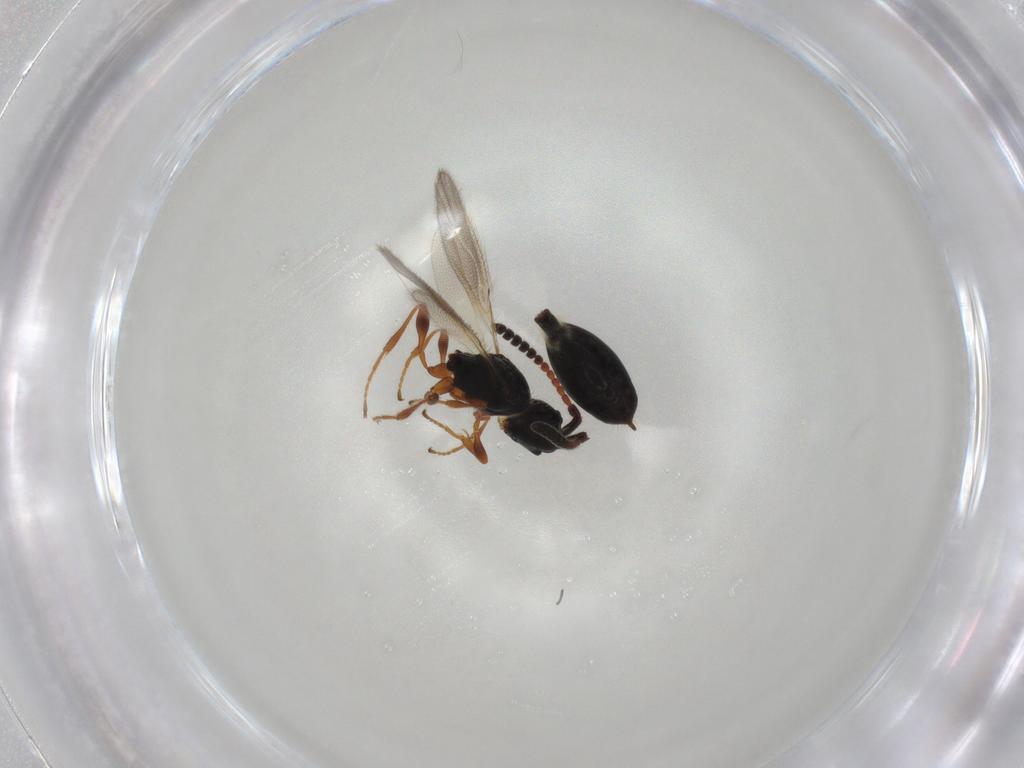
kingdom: Animalia
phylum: Arthropoda
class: Insecta
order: Hymenoptera
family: Diapriidae
